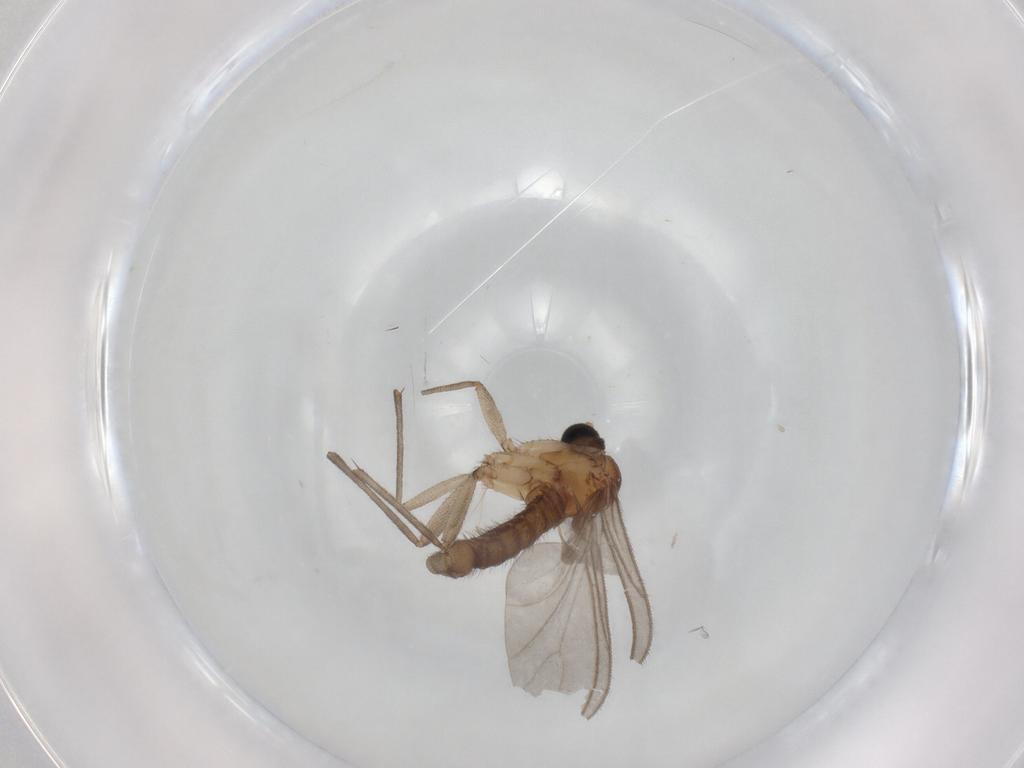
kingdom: Animalia
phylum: Arthropoda
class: Insecta
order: Diptera
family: Sciaridae
